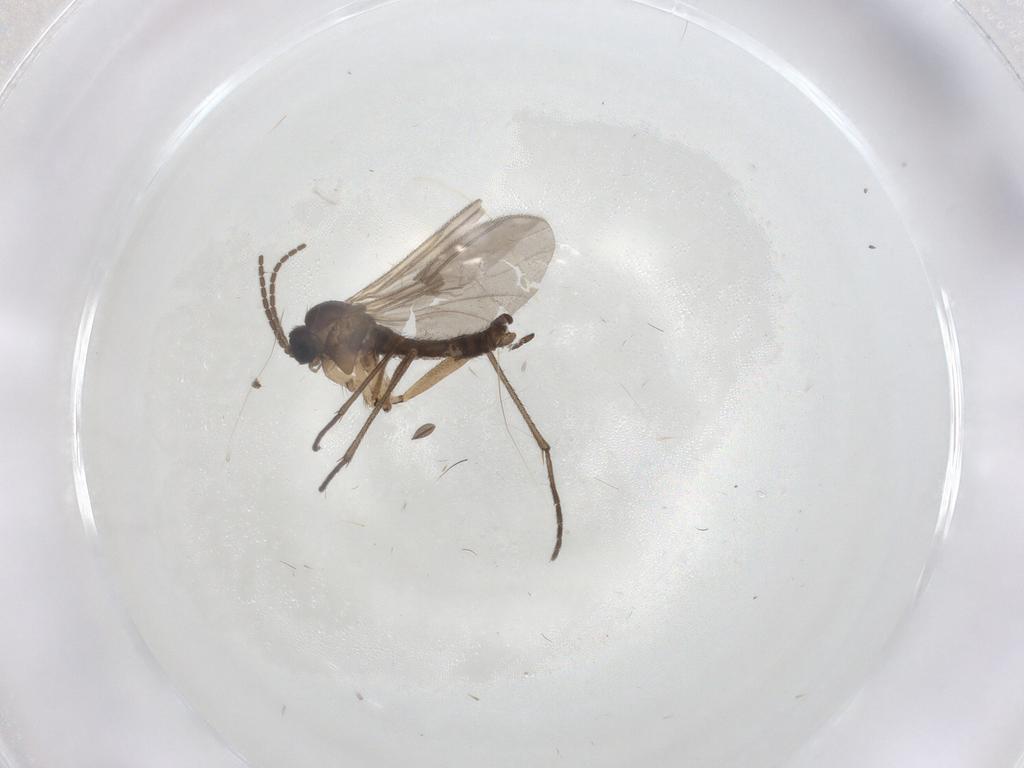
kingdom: Animalia
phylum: Arthropoda
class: Insecta
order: Diptera
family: Sciaridae
